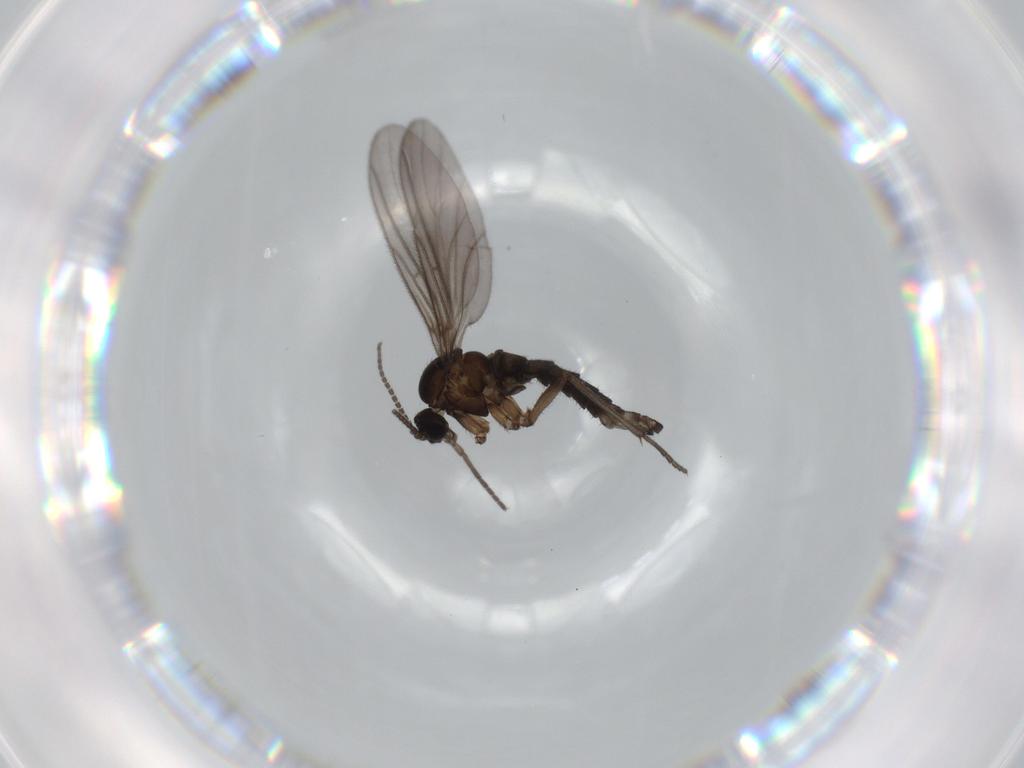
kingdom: Animalia
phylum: Arthropoda
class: Insecta
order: Diptera
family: Sciaridae
